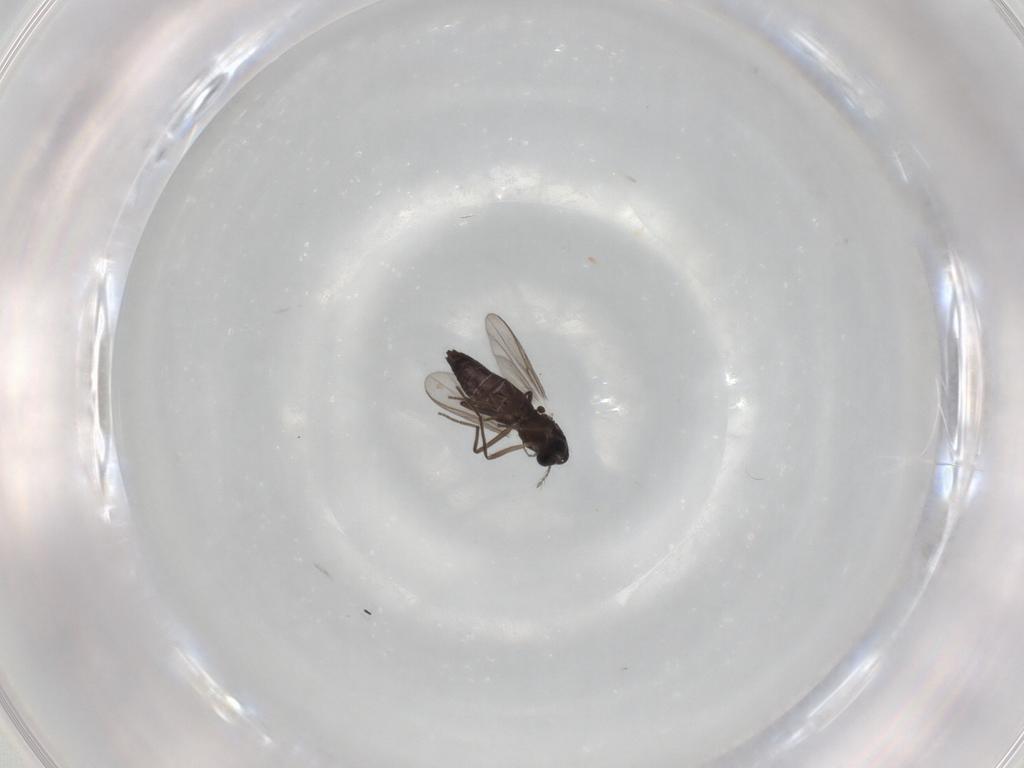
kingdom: Animalia
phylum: Arthropoda
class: Insecta
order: Diptera
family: Chironomidae
